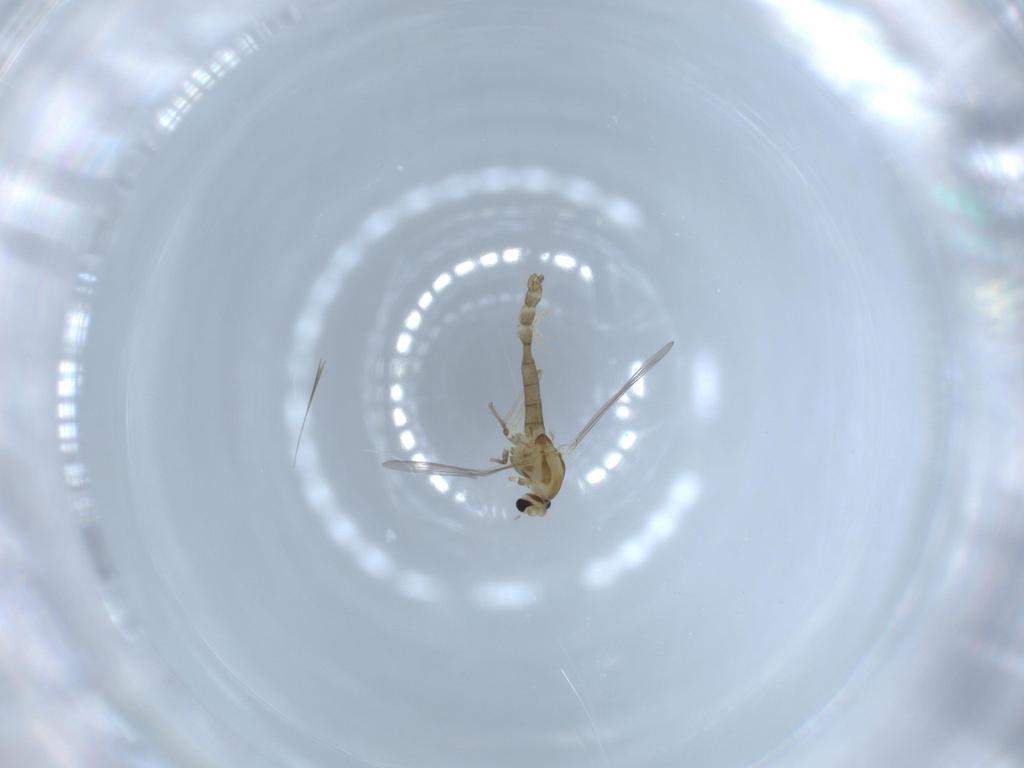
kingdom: Animalia
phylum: Arthropoda
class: Insecta
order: Diptera
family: Chironomidae
